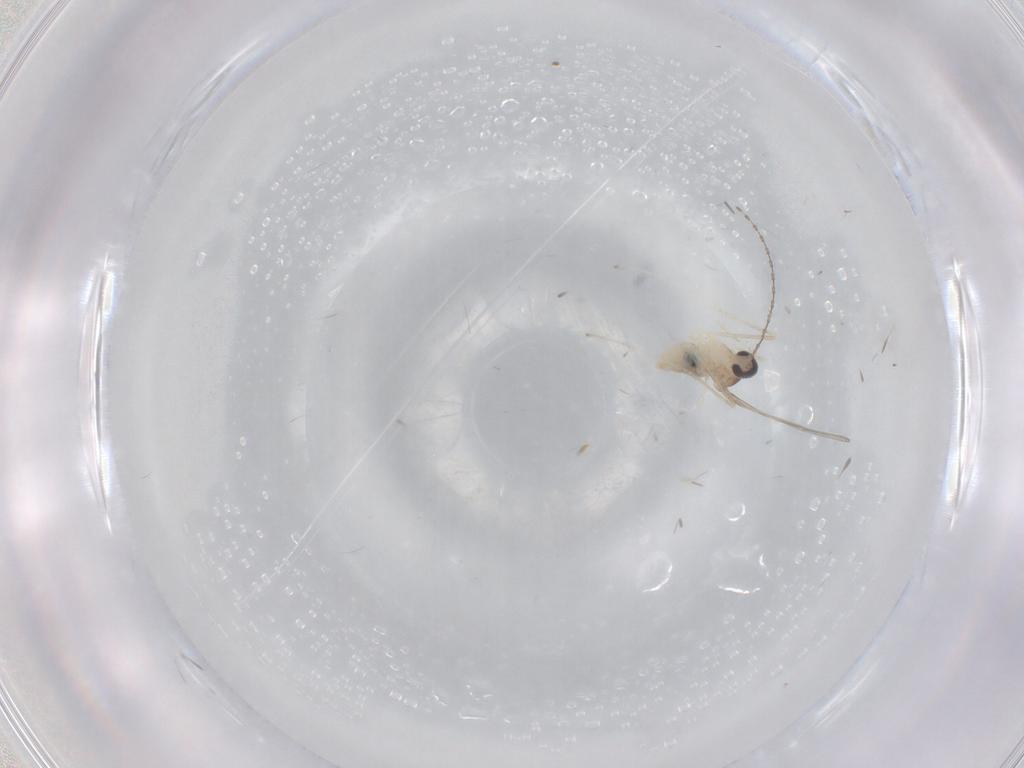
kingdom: Animalia
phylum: Arthropoda
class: Insecta
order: Diptera
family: Cecidomyiidae
